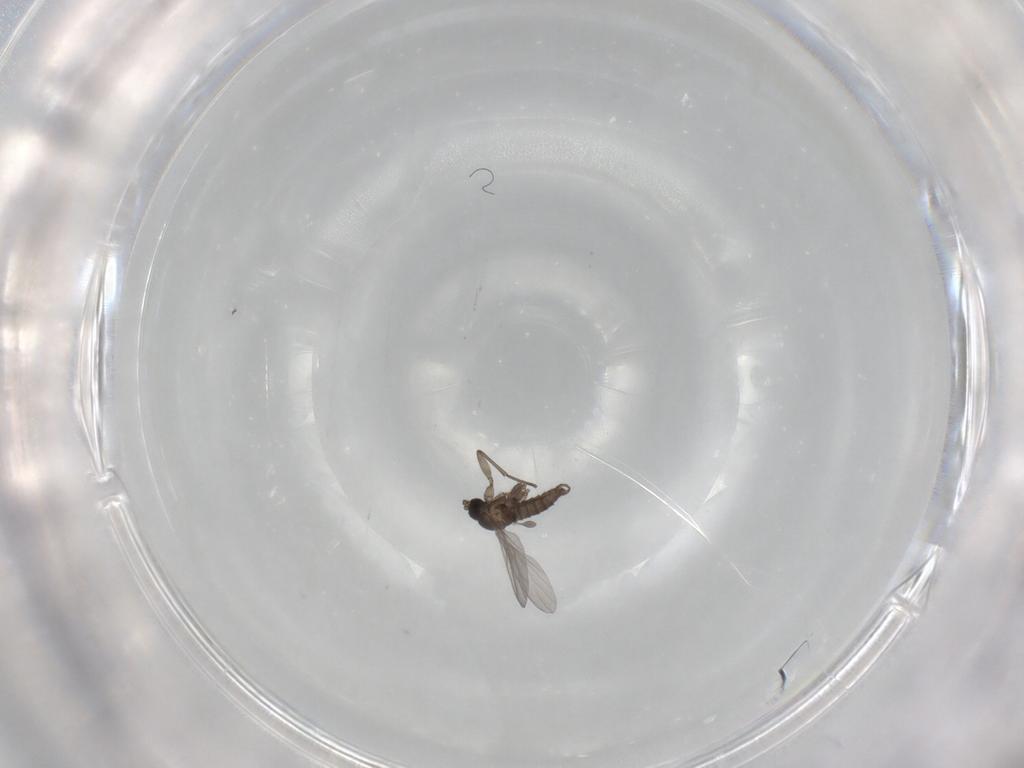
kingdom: Animalia
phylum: Arthropoda
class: Insecta
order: Diptera
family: Sciaridae
